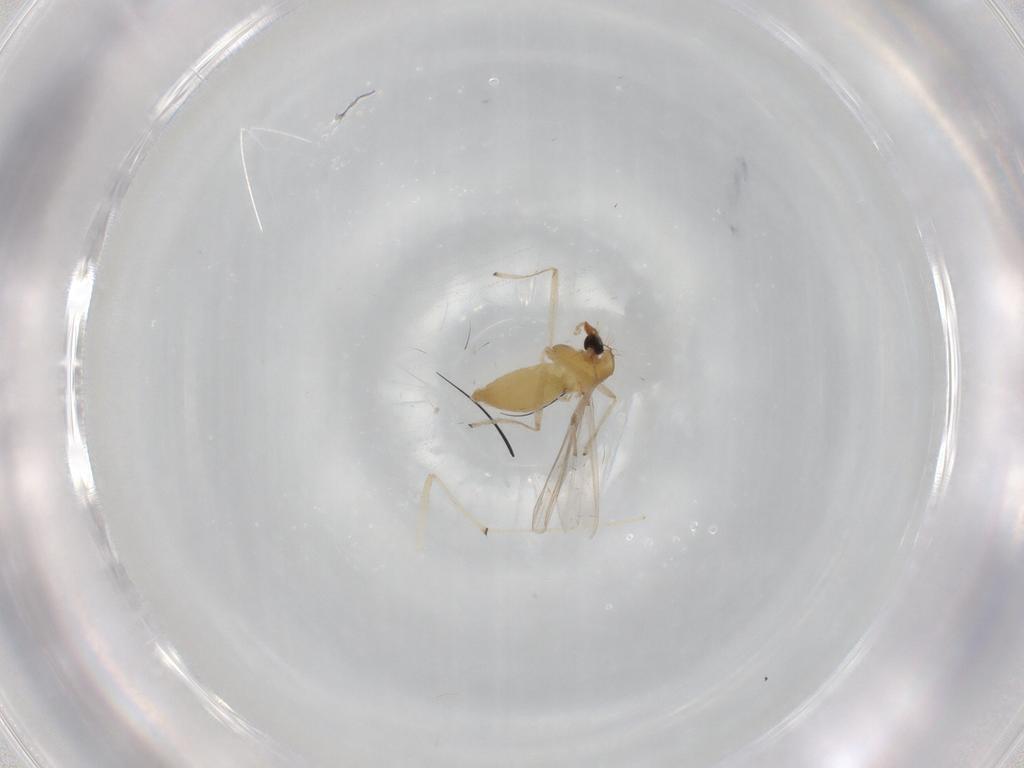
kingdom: Animalia
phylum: Arthropoda
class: Insecta
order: Diptera
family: Chironomidae
